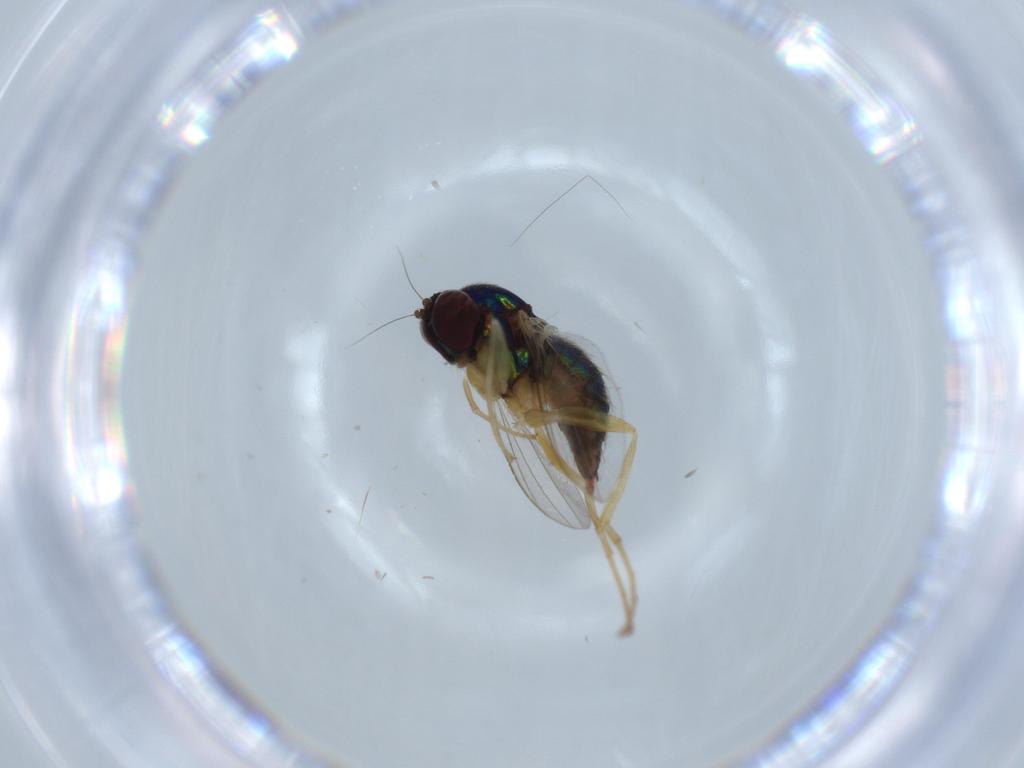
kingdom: Animalia
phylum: Arthropoda
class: Insecta
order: Diptera
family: Dolichopodidae
